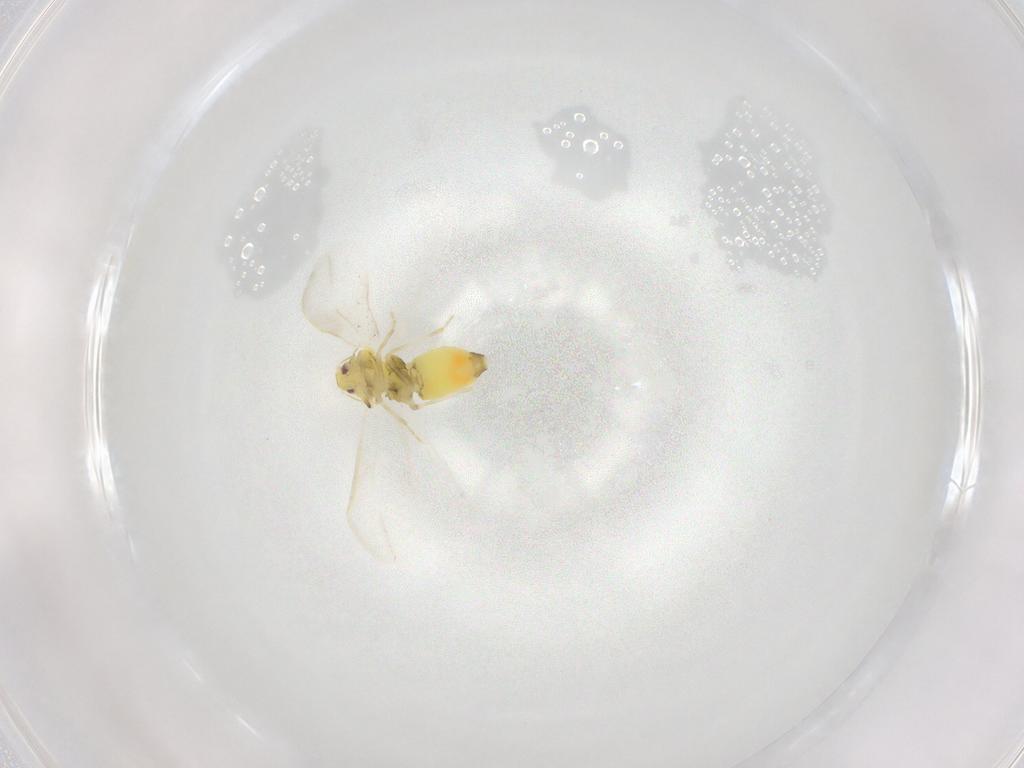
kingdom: Animalia
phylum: Arthropoda
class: Insecta
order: Hemiptera
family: Aleyrodidae
